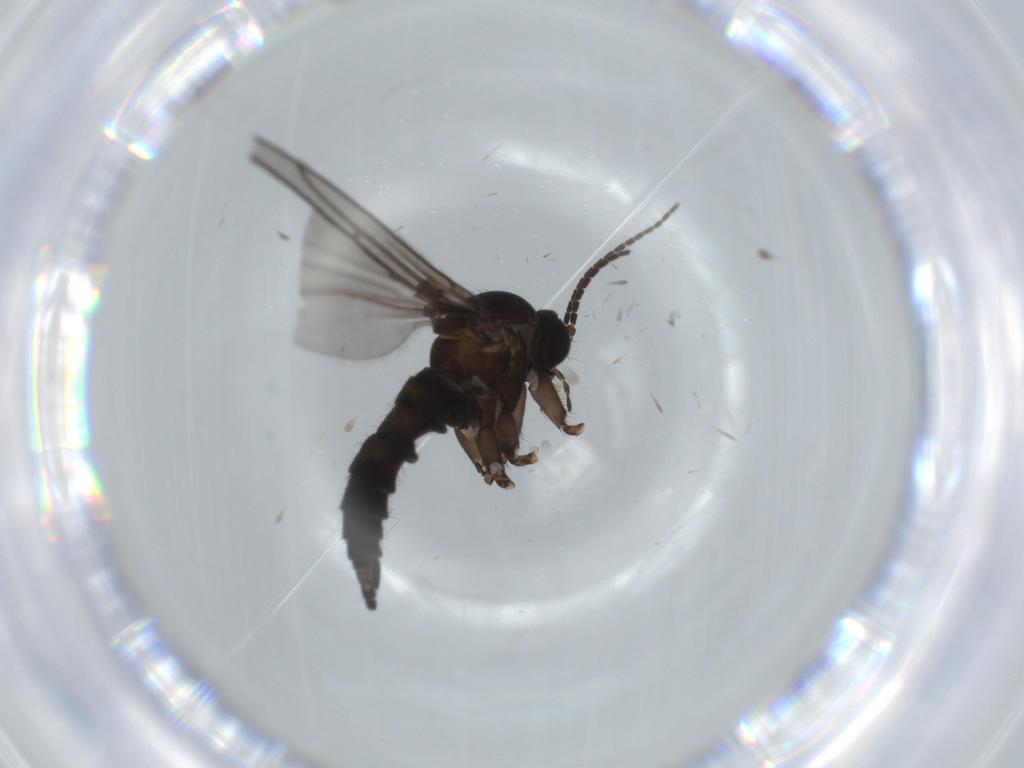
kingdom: Animalia
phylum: Arthropoda
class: Insecta
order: Diptera
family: Sciaridae
